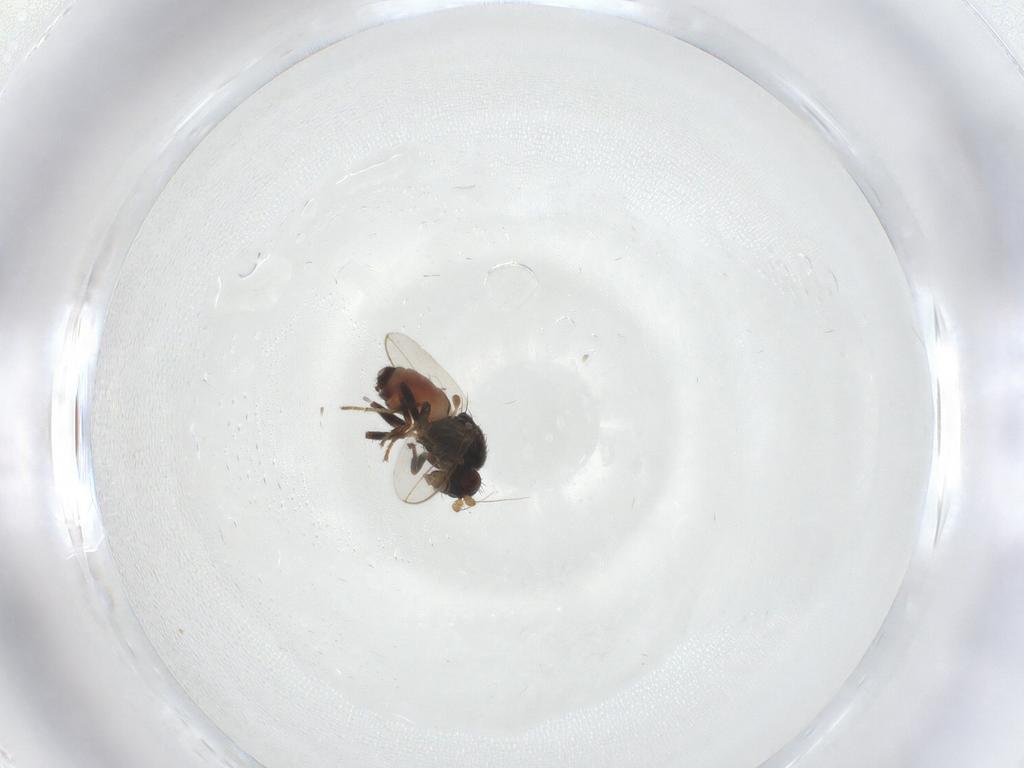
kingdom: Animalia
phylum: Arthropoda
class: Insecta
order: Diptera
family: Sphaeroceridae
